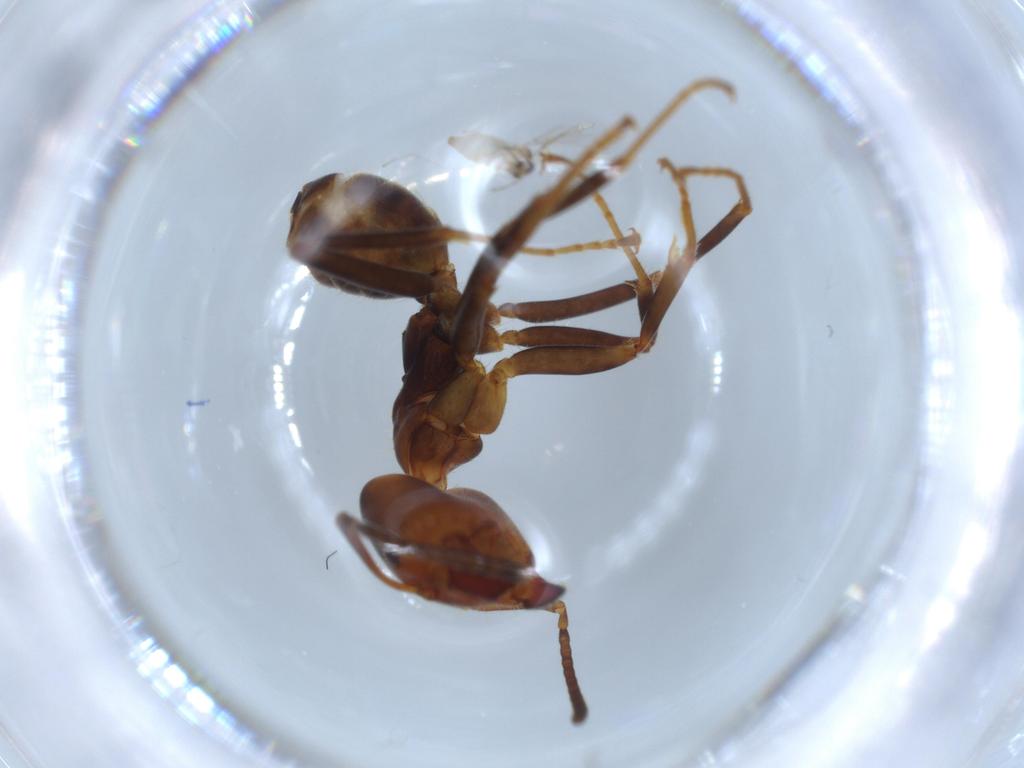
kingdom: Animalia
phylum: Arthropoda
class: Insecta
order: Hymenoptera
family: Formicidae
